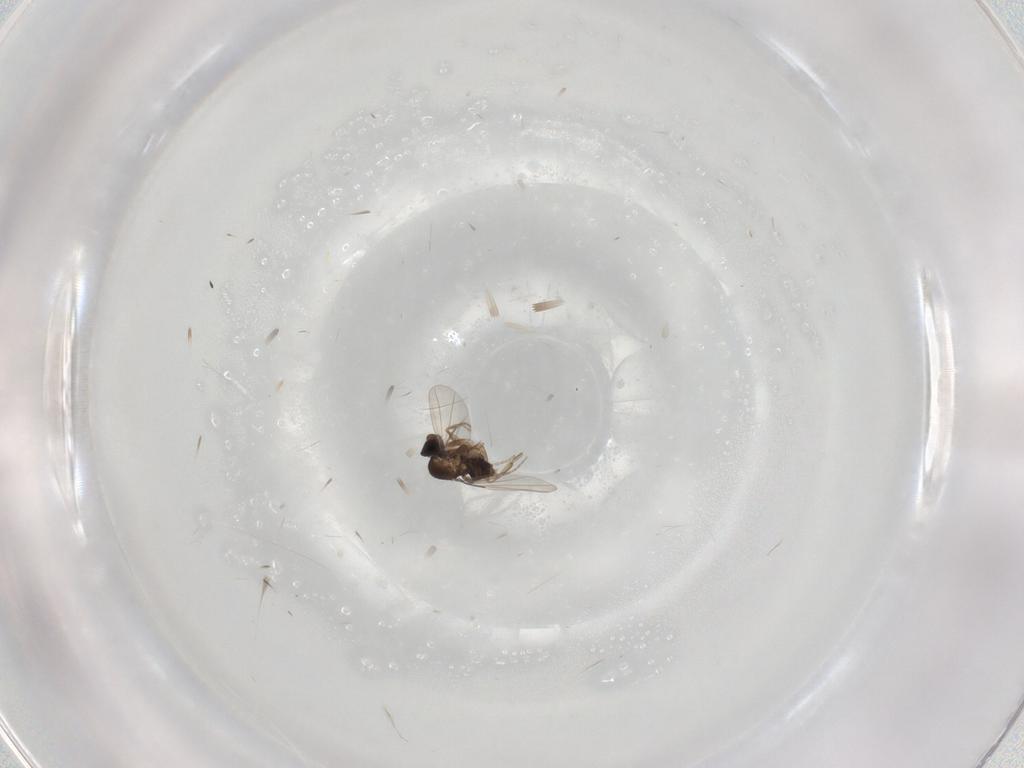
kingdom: Animalia
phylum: Arthropoda
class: Insecta
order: Diptera
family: Phoridae
